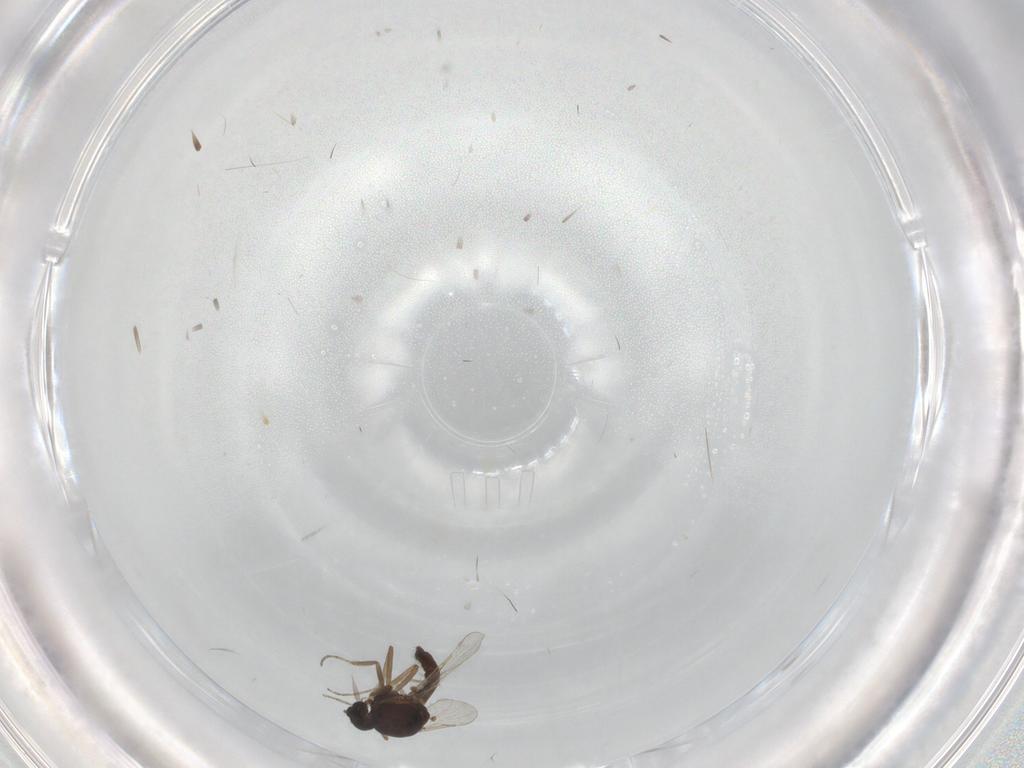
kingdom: Animalia
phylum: Arthropoda
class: Insecta
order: Diptera
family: Ceratopogonidae
